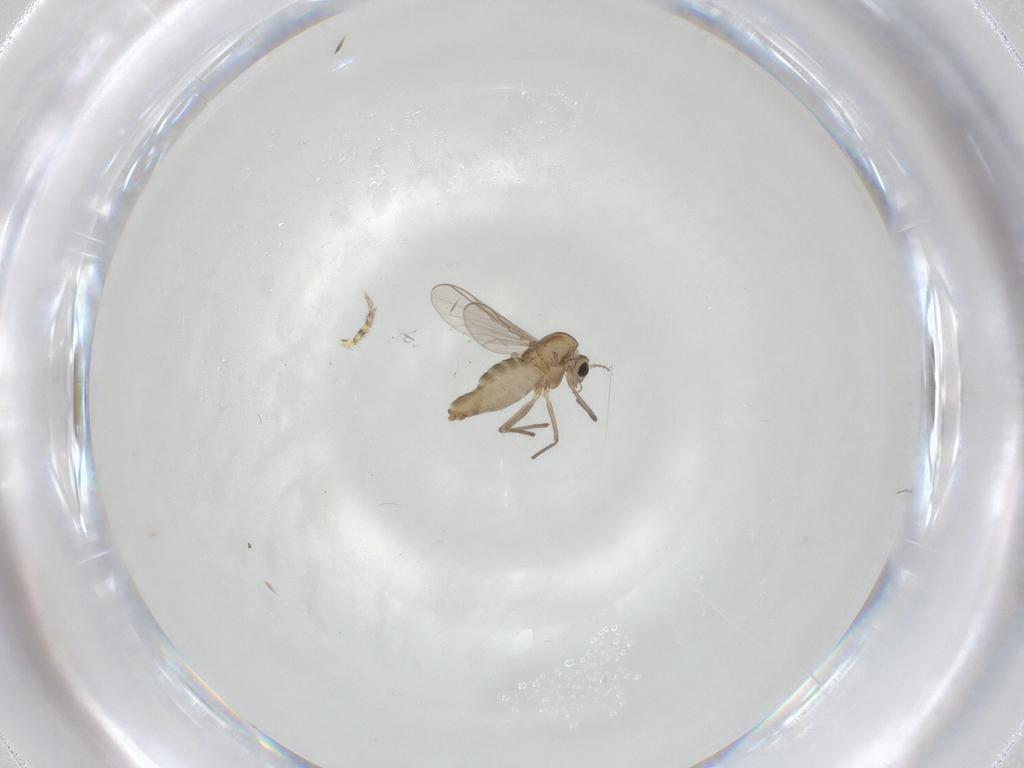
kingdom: Animalia
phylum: Arthropoda
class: Insecta
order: Diptera
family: Chironomidae
